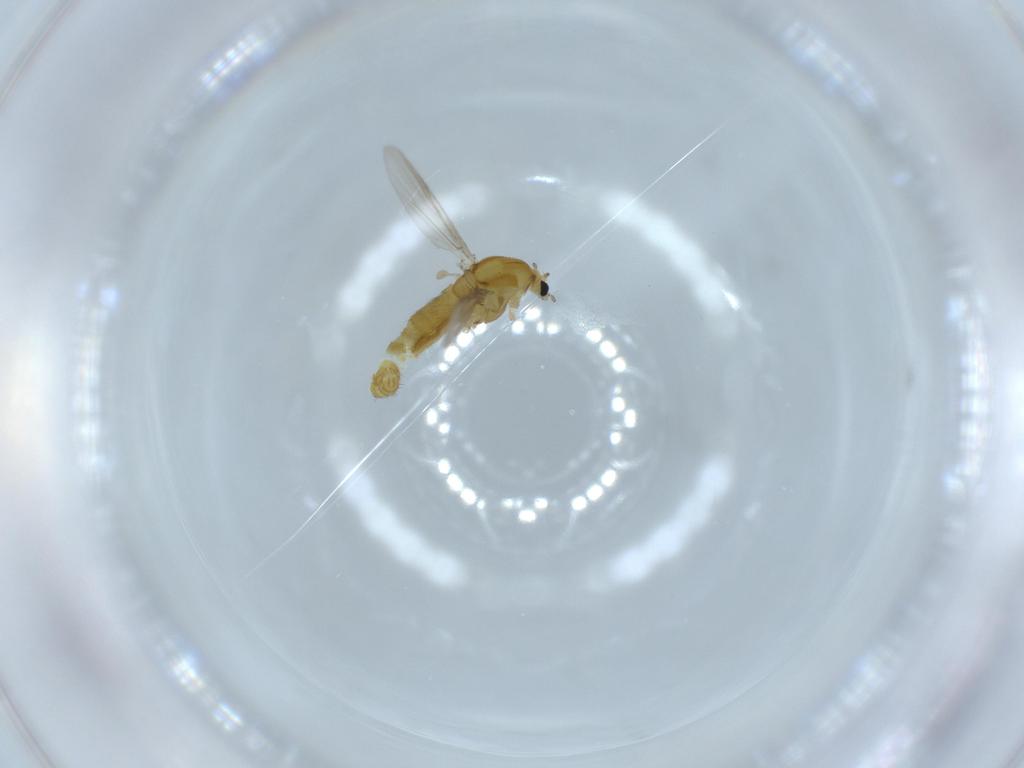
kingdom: Animalia
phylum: Arthropoda
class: Insecta
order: Diptera
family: Chironomidae
